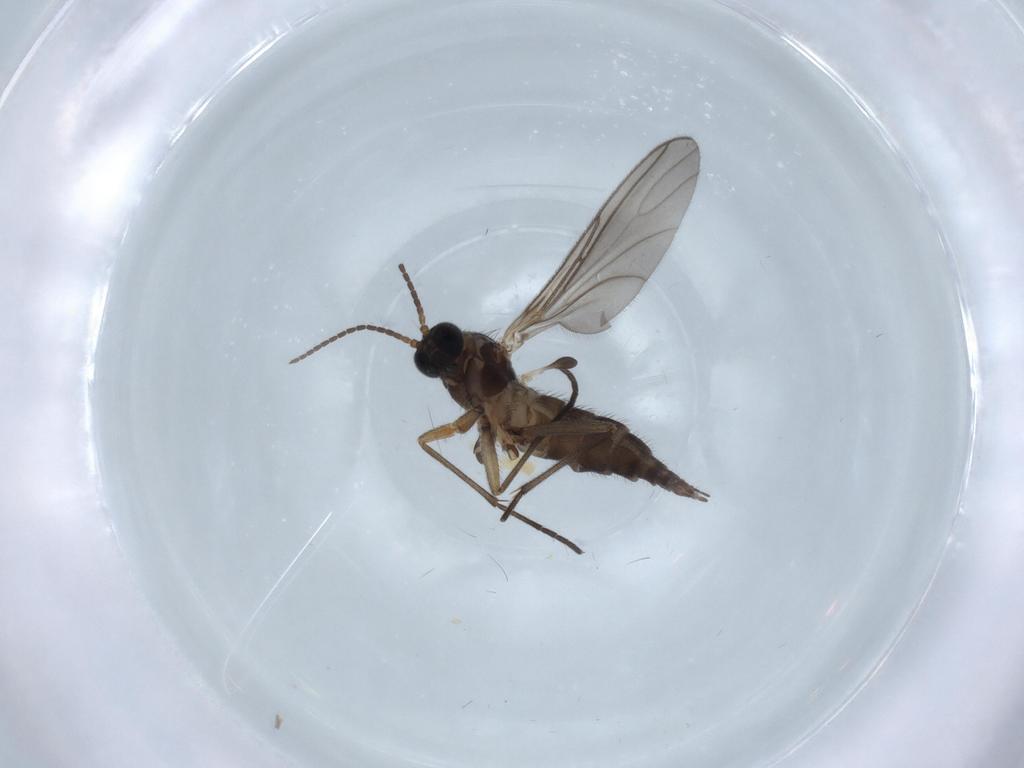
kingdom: Animalia
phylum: Arthropoda
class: Insecta
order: Diptera
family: Sciaridae
